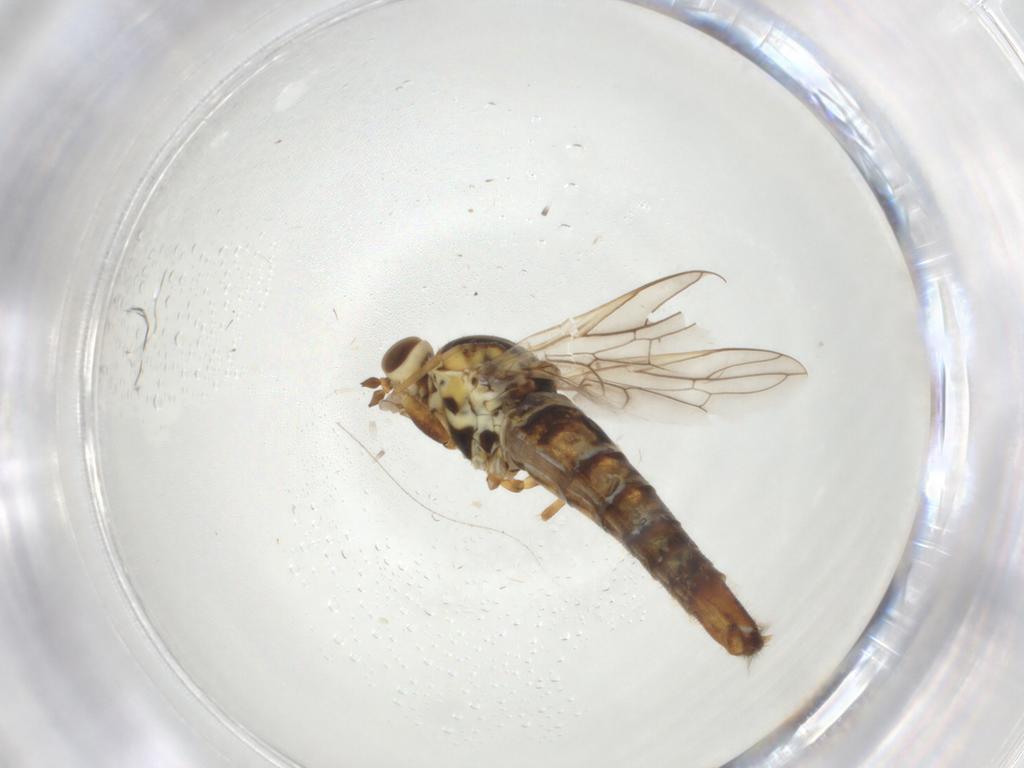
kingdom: Animalia
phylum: Arthropoda
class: Insecta
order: Diptera
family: Scenopinidae
